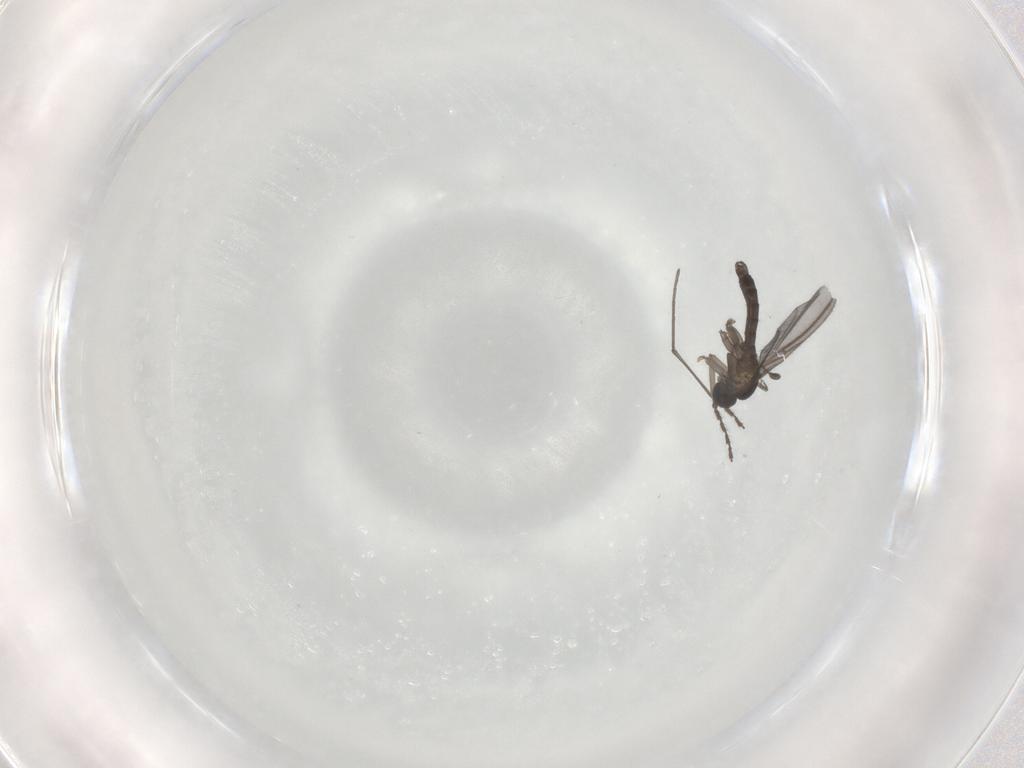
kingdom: Animalia
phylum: Arthropoda
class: Insecta
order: Diptera
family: Sciaridae
